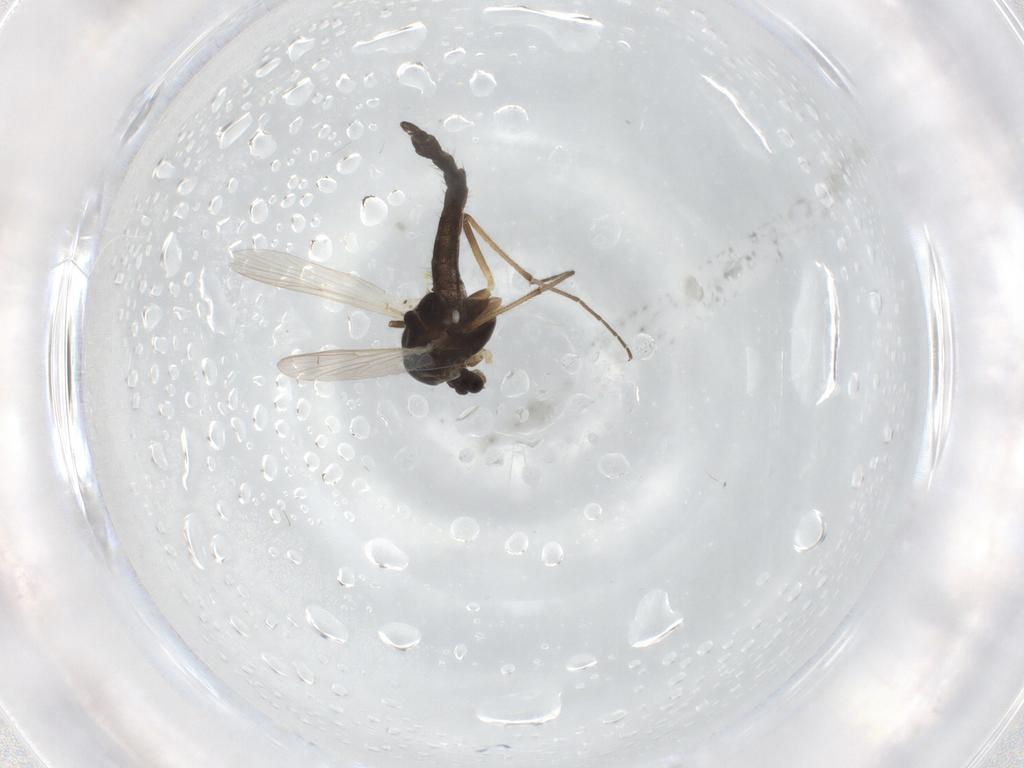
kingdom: Animalia
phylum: Arthropoda
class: Insecta
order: Diptera
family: Chironomidae
